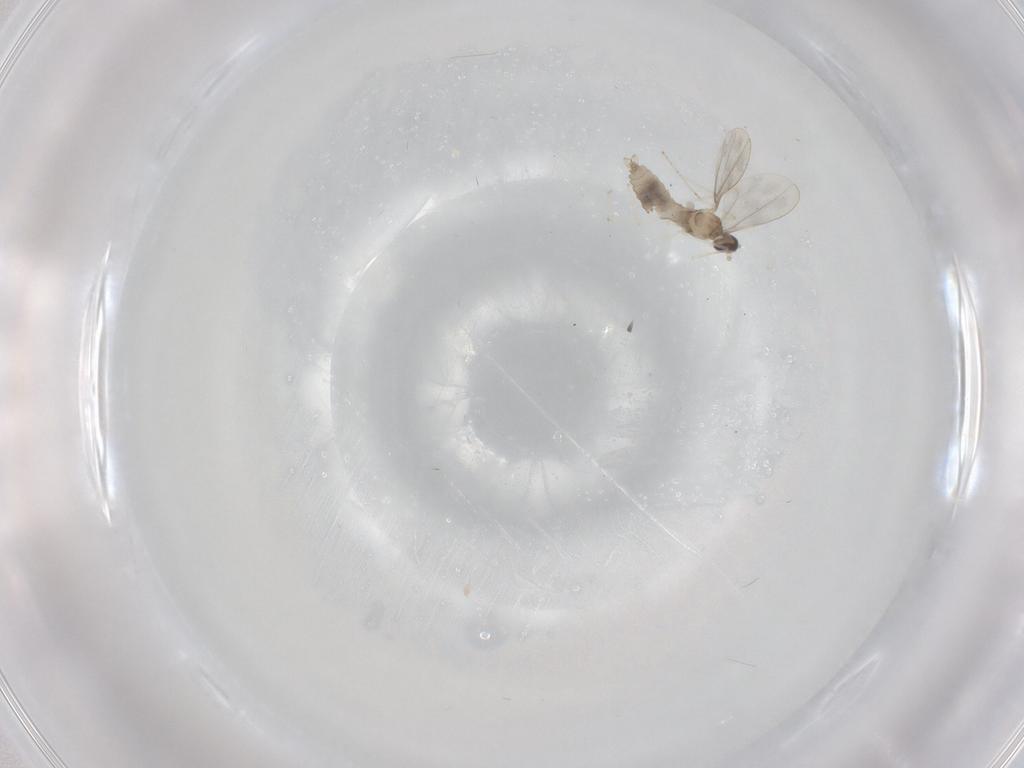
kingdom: Animalia
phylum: Arthropoda
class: Insecta
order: Diptera
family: Cecidomyiidae
